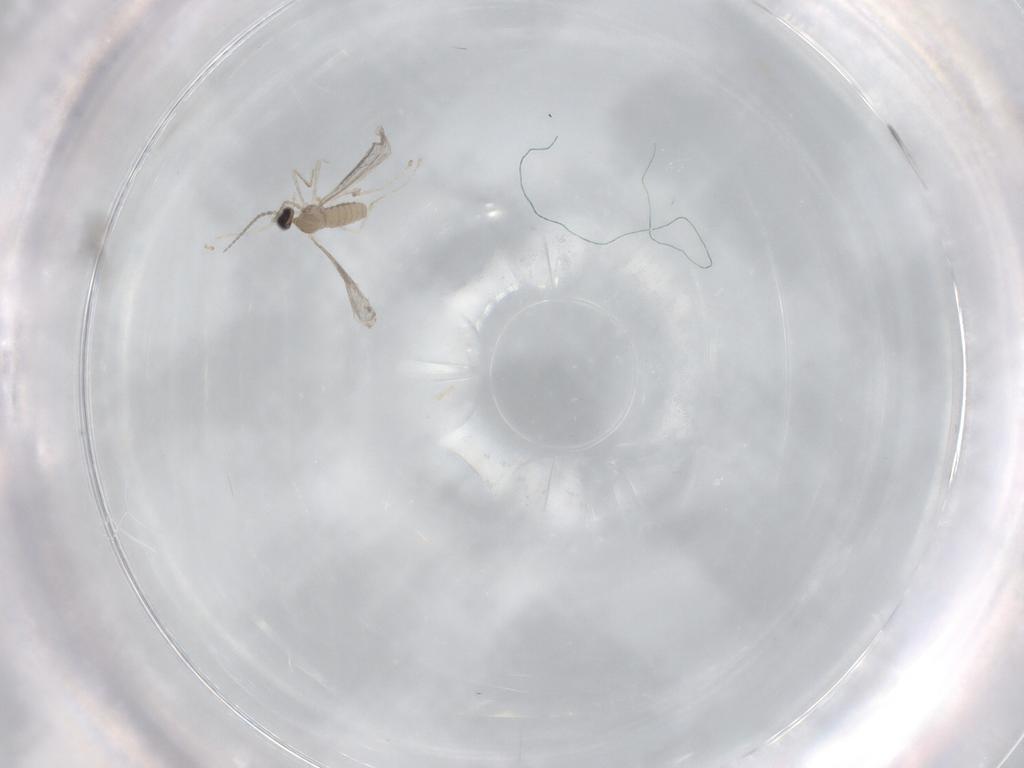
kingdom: Animalia
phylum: Arthropoda
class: Insecta
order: Diptera
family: Sciaridae
